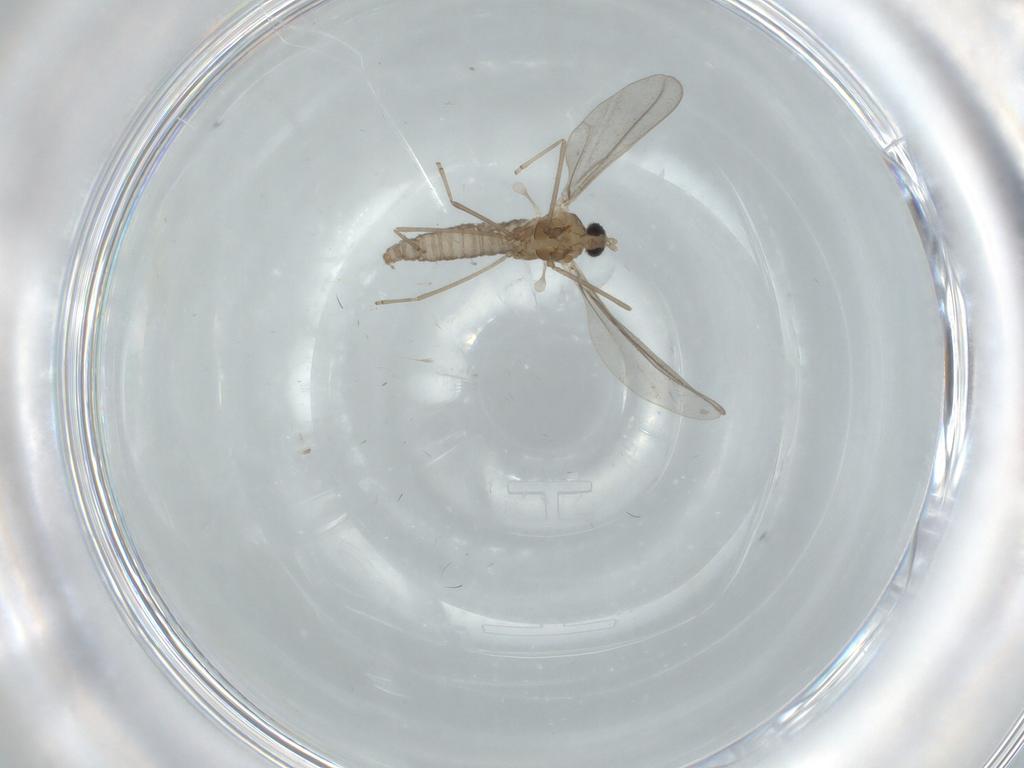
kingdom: Animalia
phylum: Arthropoda
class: Insecta
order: Diptera
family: Cecidomyiidae
